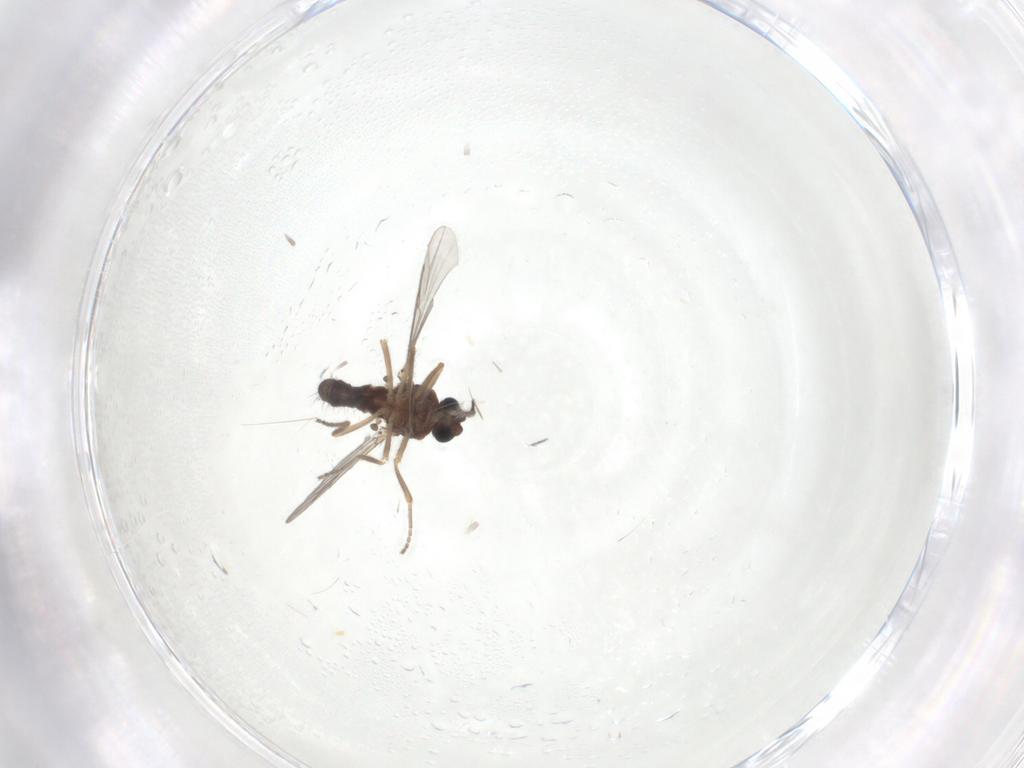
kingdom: Animalia
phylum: Arthropoda
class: Insecta
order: Diptera
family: Ceratopogonidae
